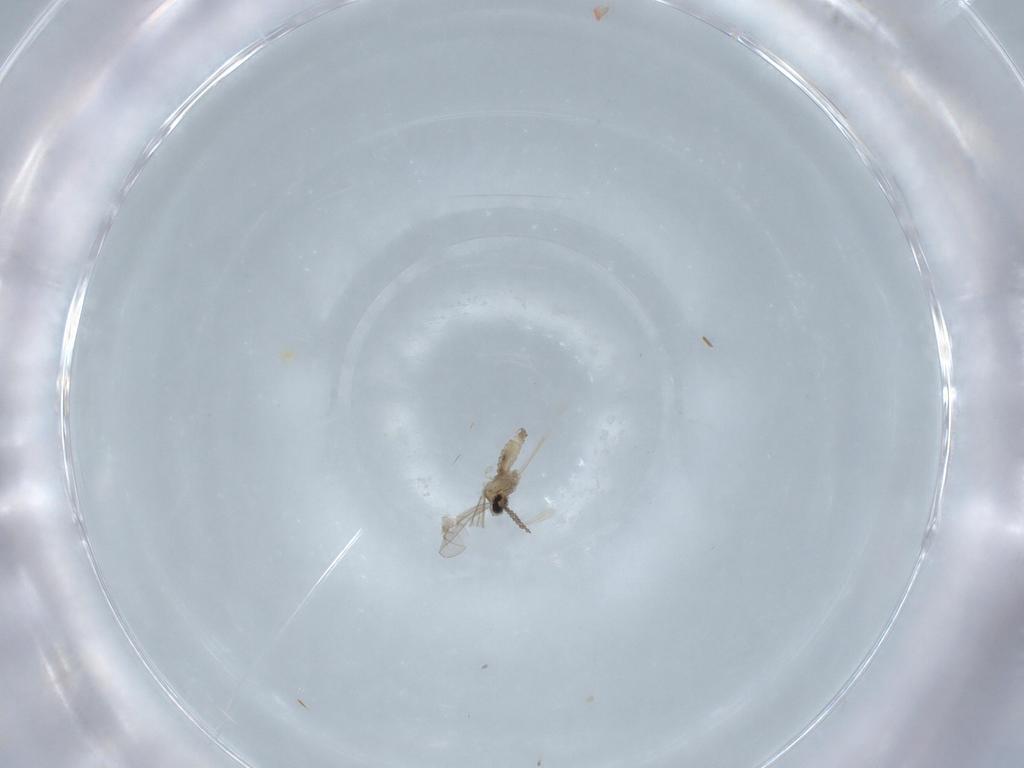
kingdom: Animalia
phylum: Arthropoda
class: Insecta
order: Diptera
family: Cecidomyiidae
